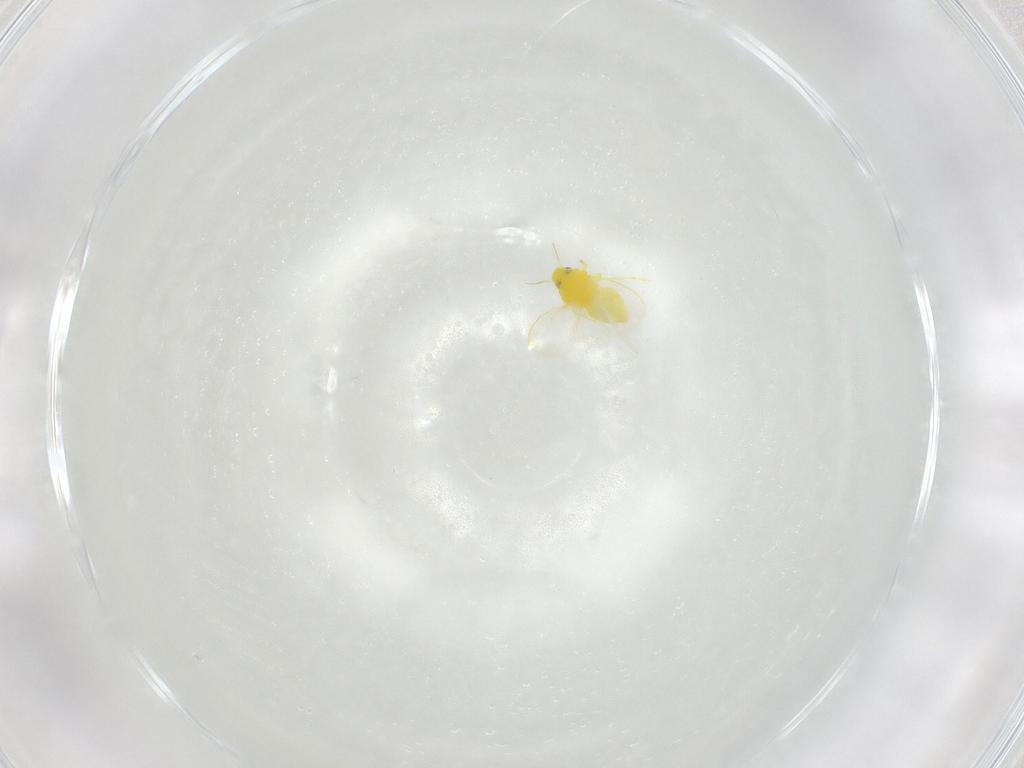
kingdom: Animalia
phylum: Arthropoda
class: Insecta
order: Hemiptera
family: Aleyrodidae
